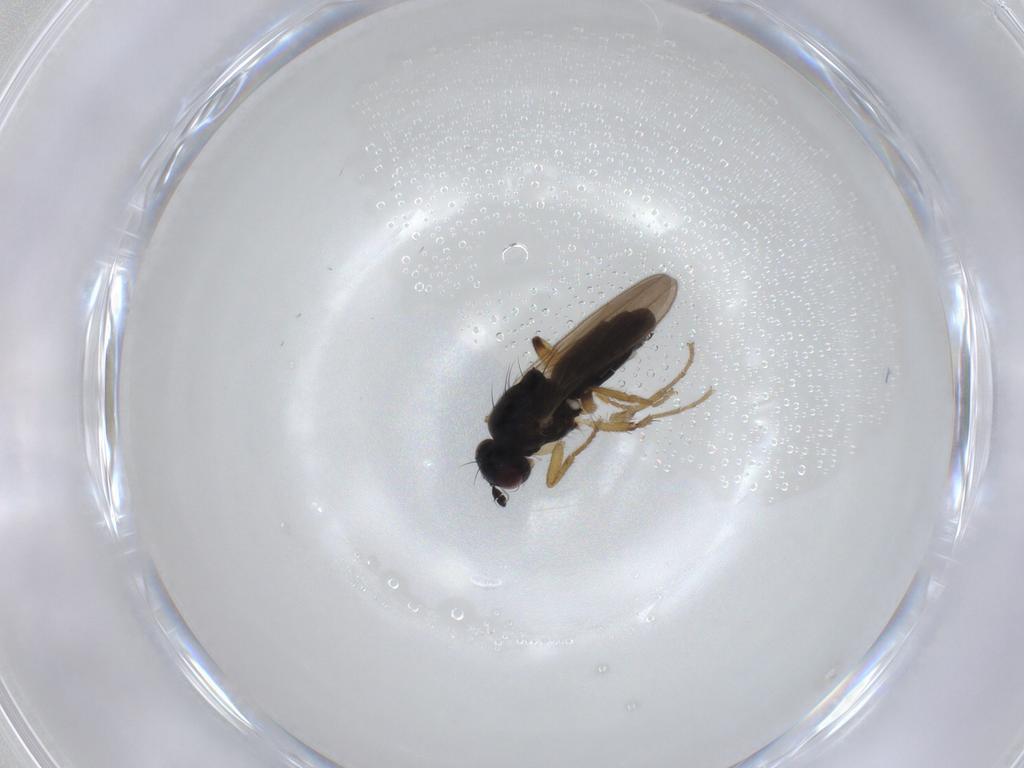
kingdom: Animalia
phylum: Arthropoda
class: Insecta
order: Diptera
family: Sphaeroceridae
